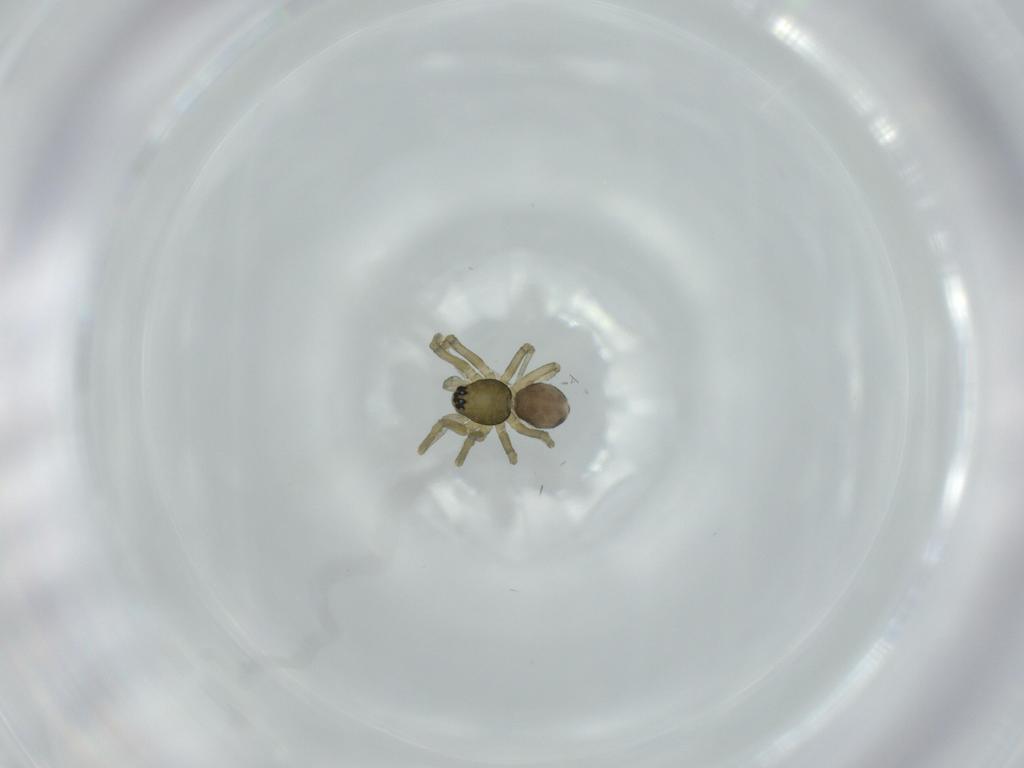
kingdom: Animalia
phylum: Arthropoda
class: Arachnida
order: Araneae
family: Linyphiidae
